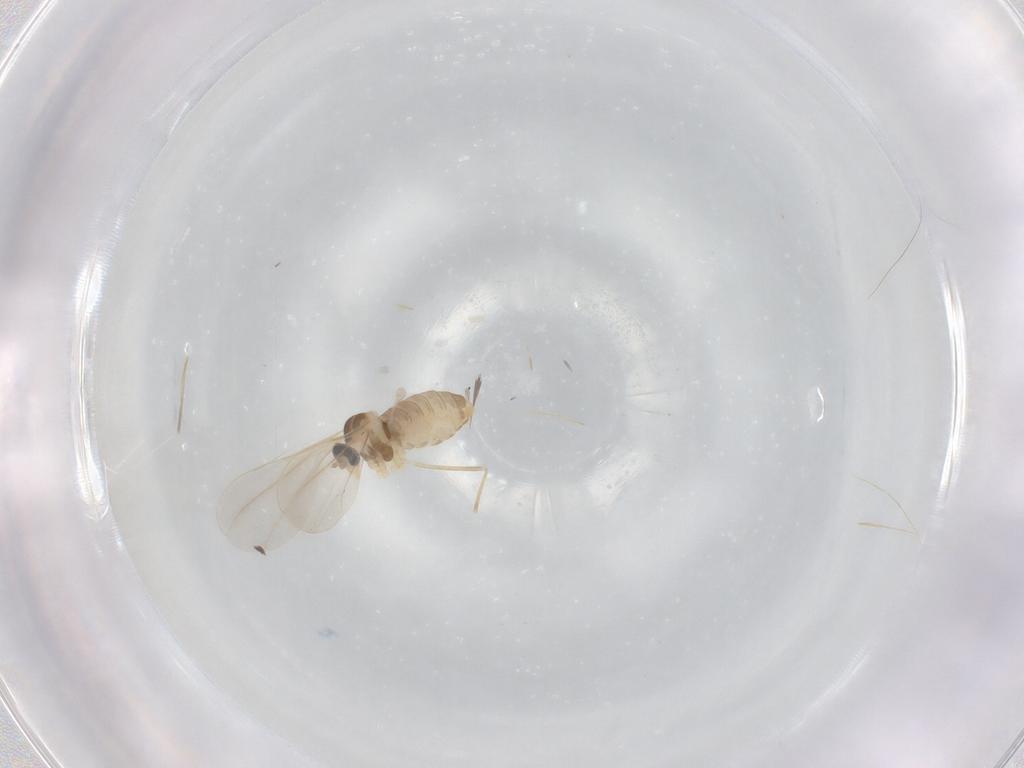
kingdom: Animalia
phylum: Arthropoda
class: Insecta
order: Diptera
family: Cecidomyiidae
